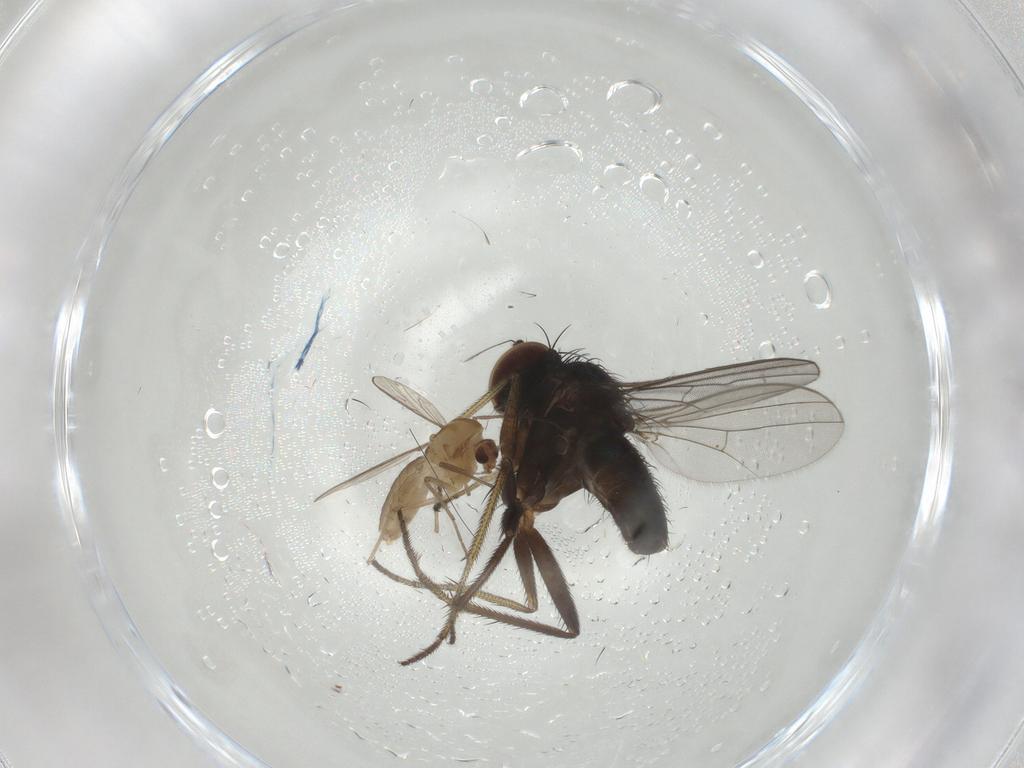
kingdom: Animalia
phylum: Arthropoda
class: Insecta
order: Diptera
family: Chironomidae
